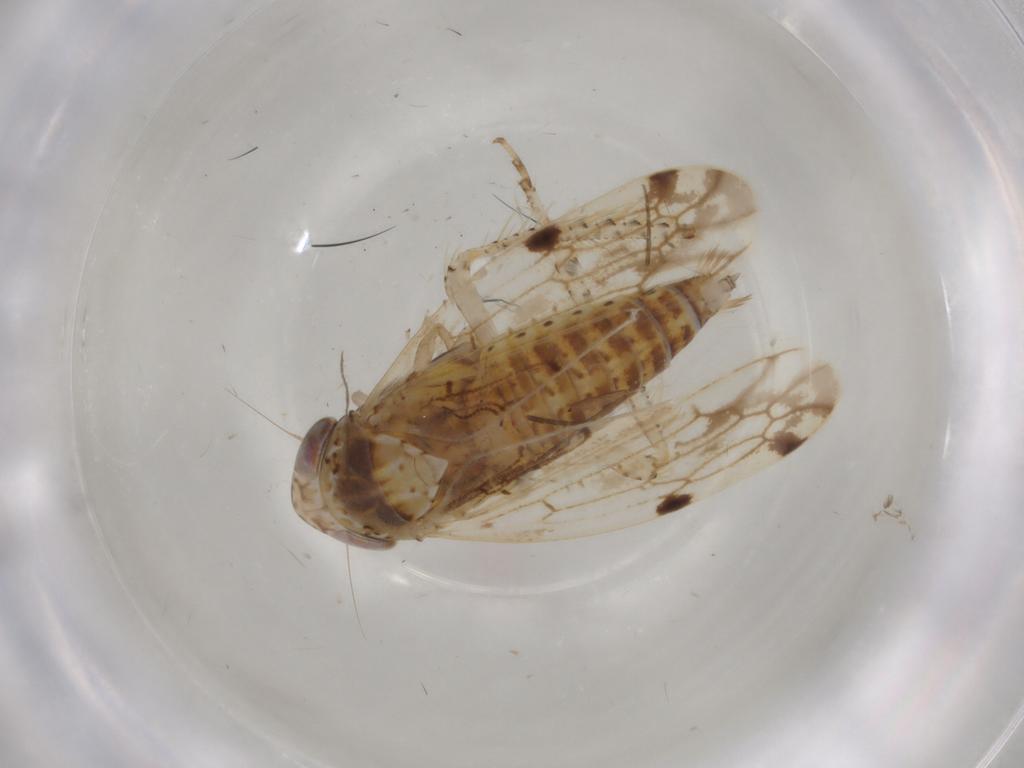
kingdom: Animalia
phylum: Arthropoda
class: Insecta
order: Hemiptera
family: Cicadellidae
